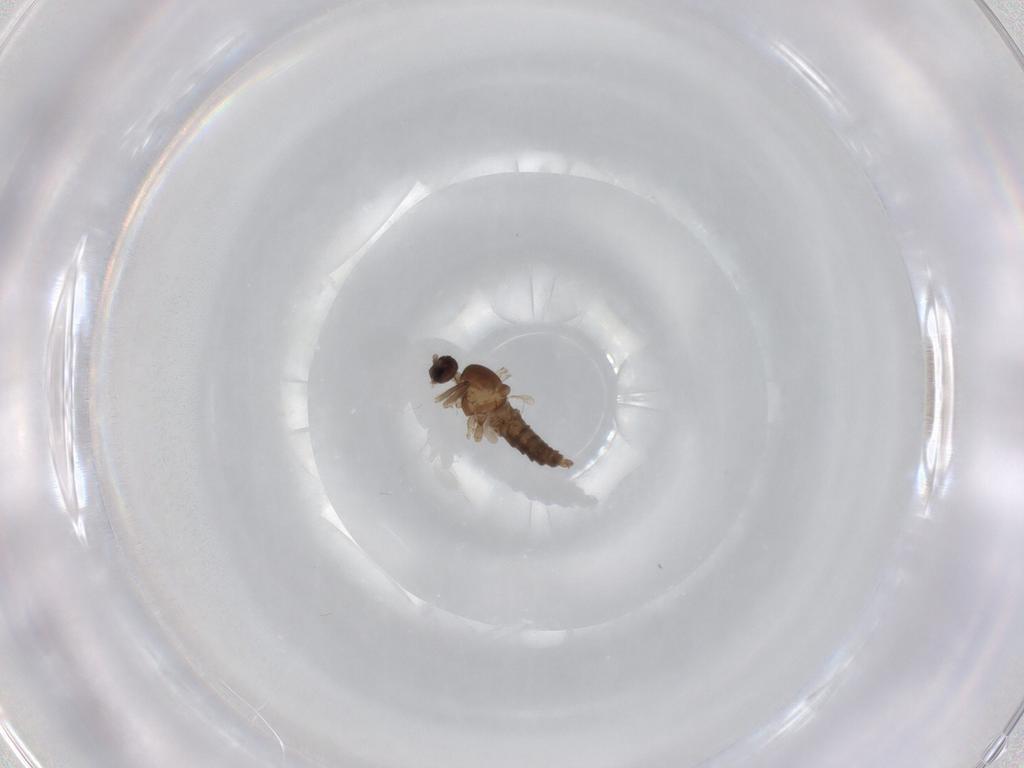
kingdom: Animalia
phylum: Arthropoda
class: Insecta
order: Diptera
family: Cecidomyiidae
